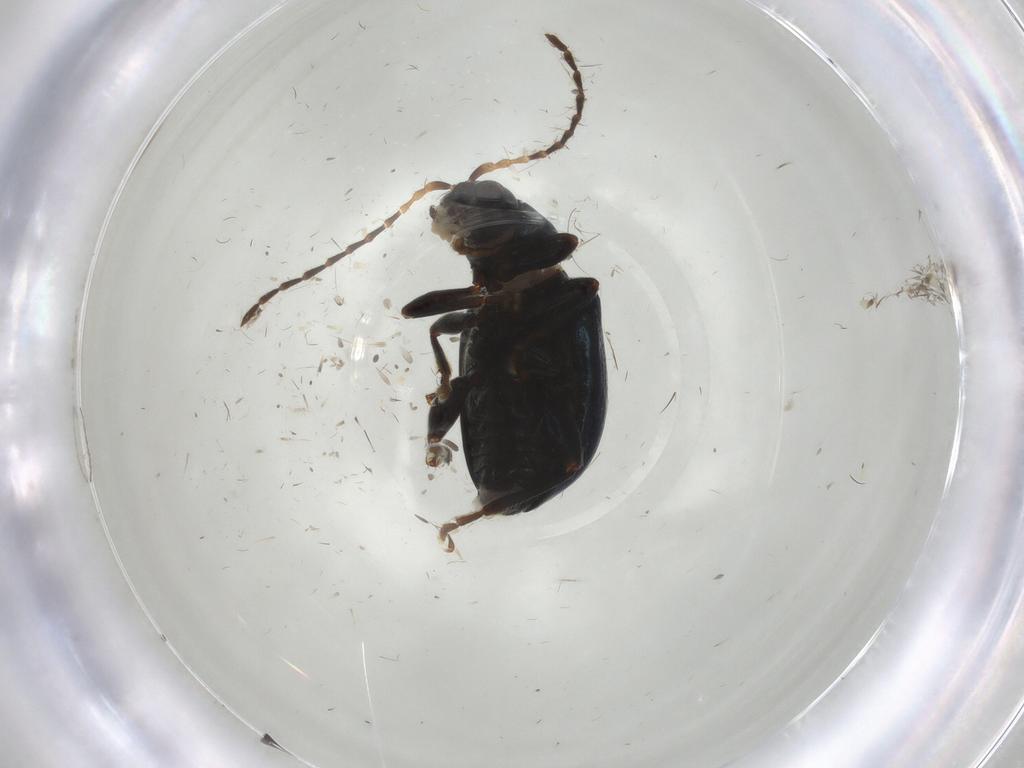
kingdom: Animalia
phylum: Arthropoda
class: Insecta
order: Coleoptera
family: Chrysomelidae
